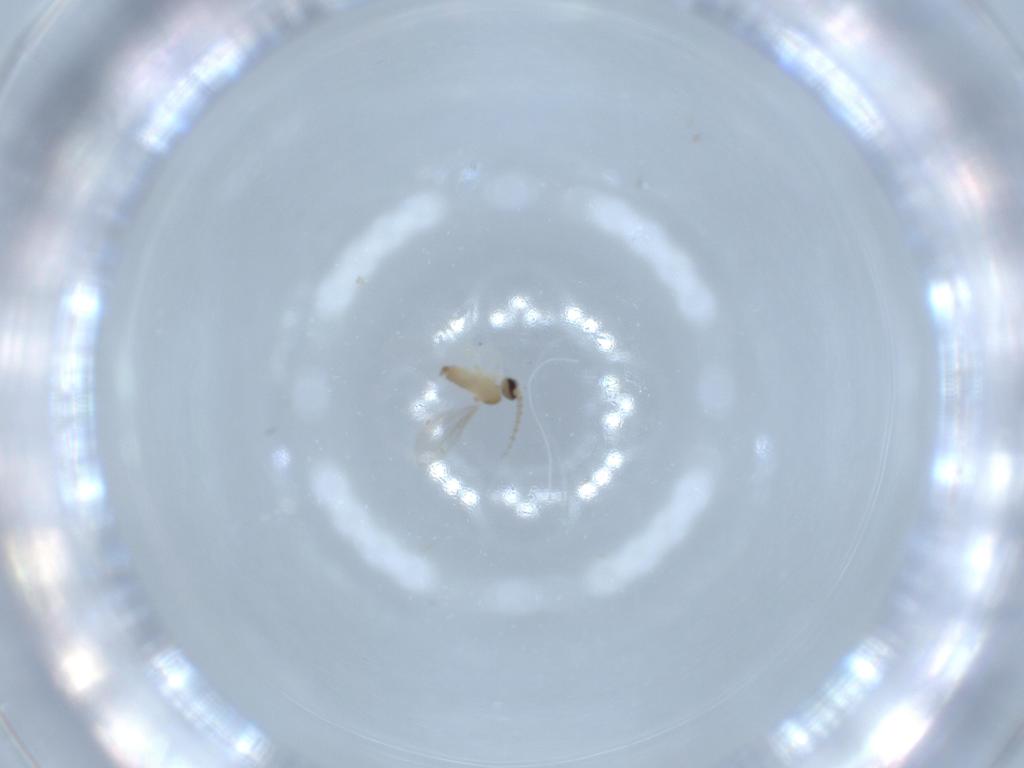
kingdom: Animalia
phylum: Arthropoda
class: Insecta
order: Diptera
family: Cecidomyiidae
